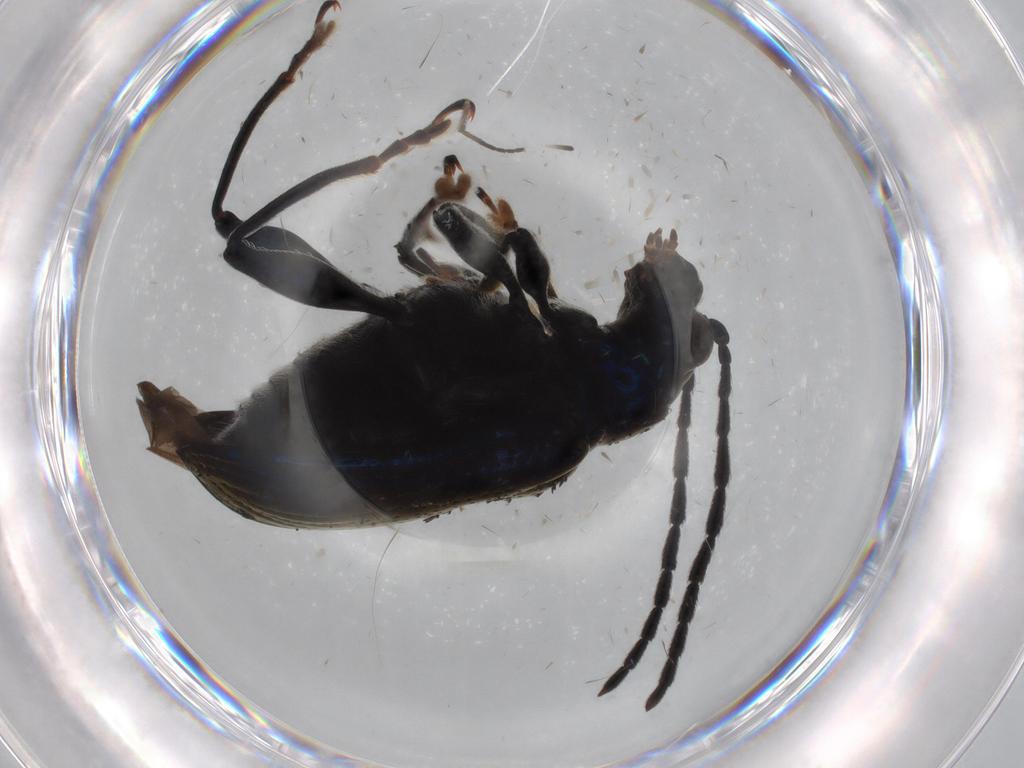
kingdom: Animalia
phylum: Arthropoda
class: Insecta
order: Coleoptera
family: Chrysomelidae
